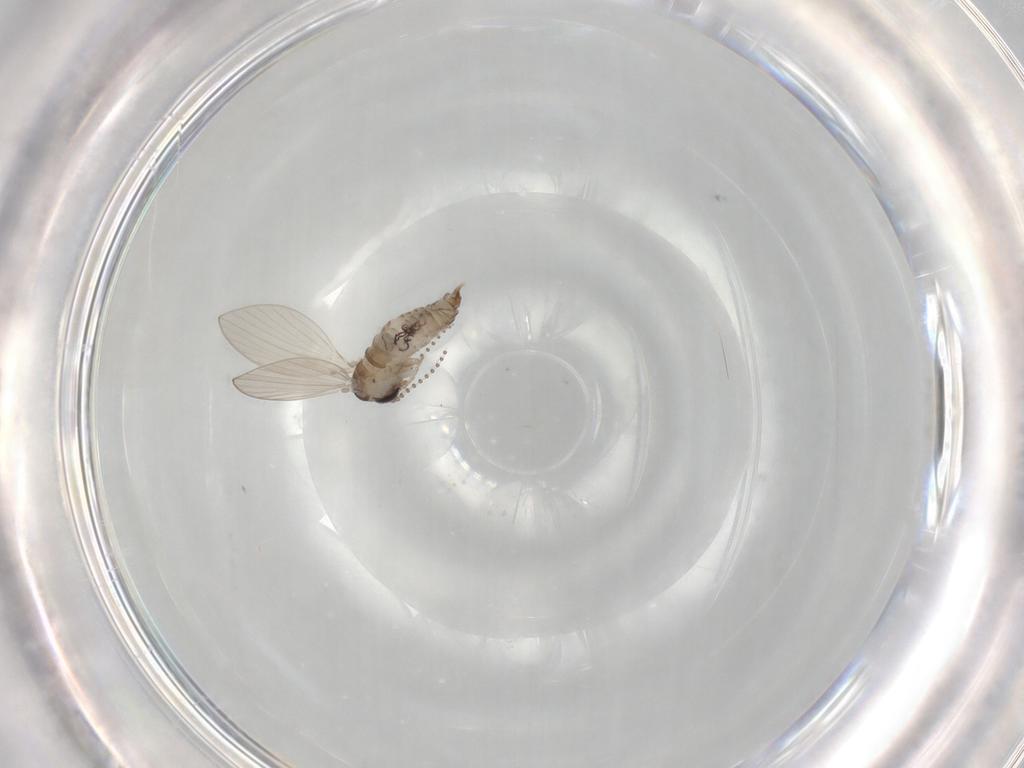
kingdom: Animalia
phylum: Arthropoda
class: Insecta
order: Diptera
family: Psychodidae
